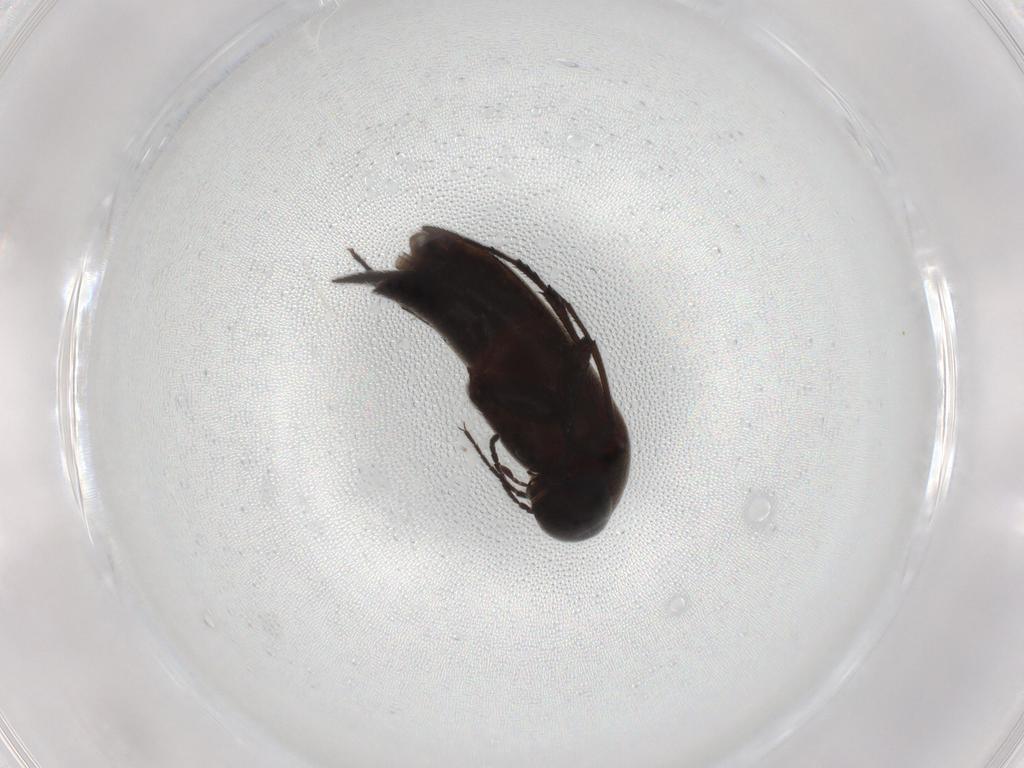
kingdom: Animalia
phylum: Arthropoda
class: Insecta
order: Coleoptera
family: Mordellidae
